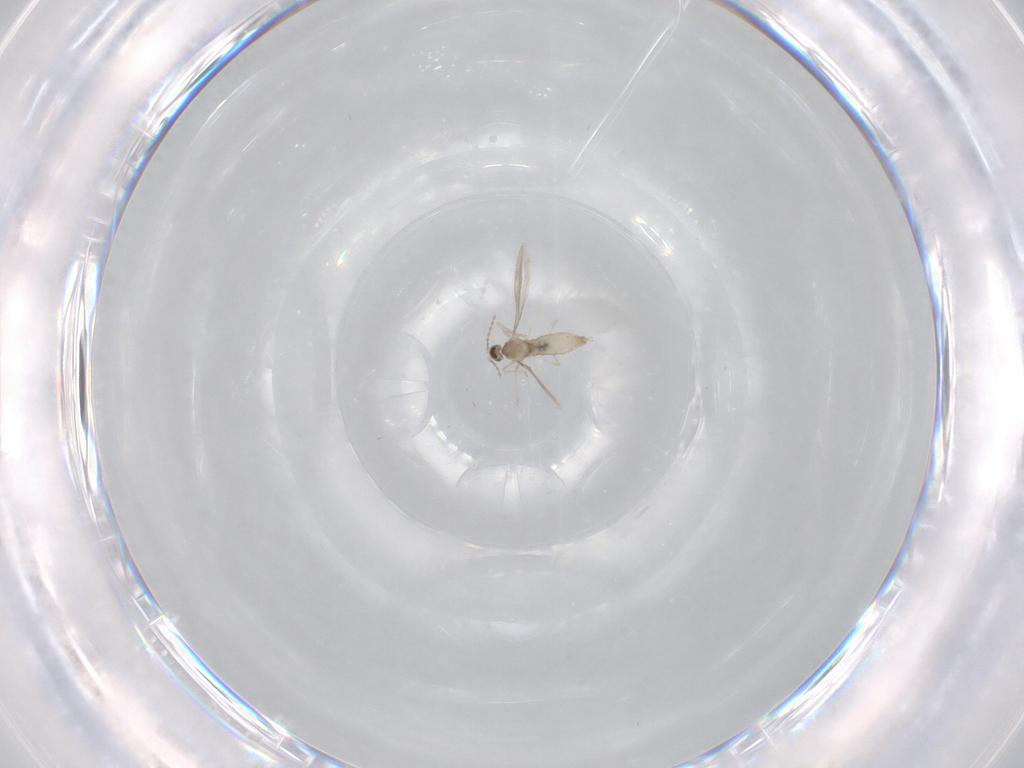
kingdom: Animalia
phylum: Arthropoda
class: Insecta
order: Diptera
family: Cecidomyiidae
